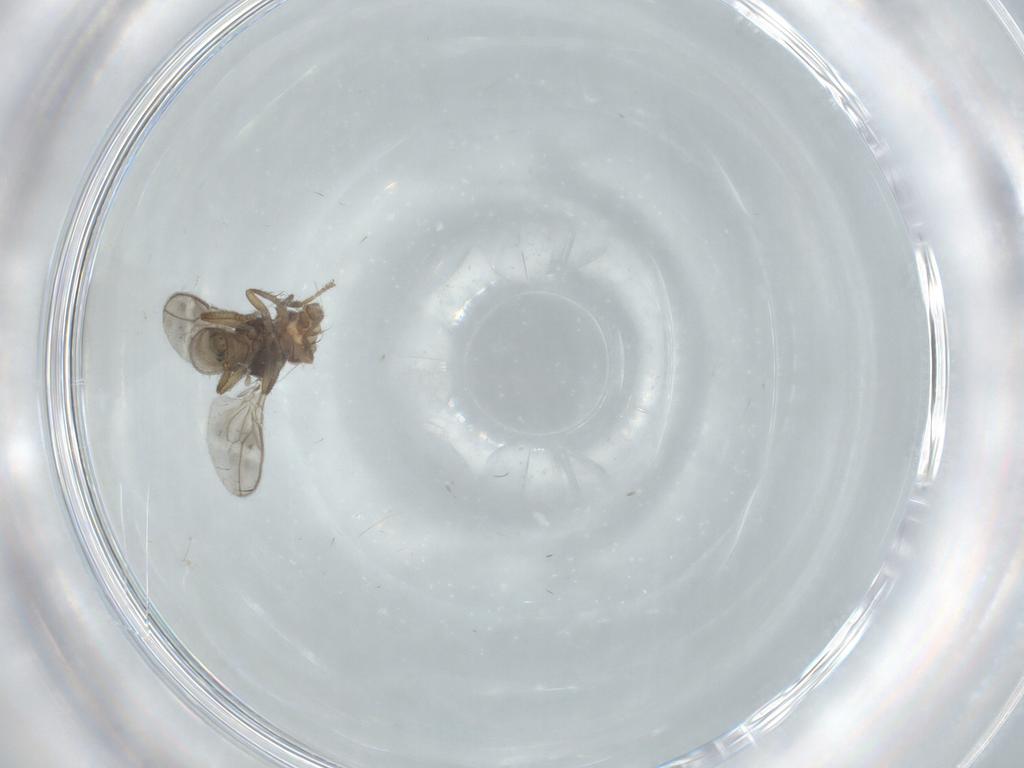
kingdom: Animalia
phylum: Arthropoda
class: Insecta
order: Diptera
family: Sphaeroceridae
